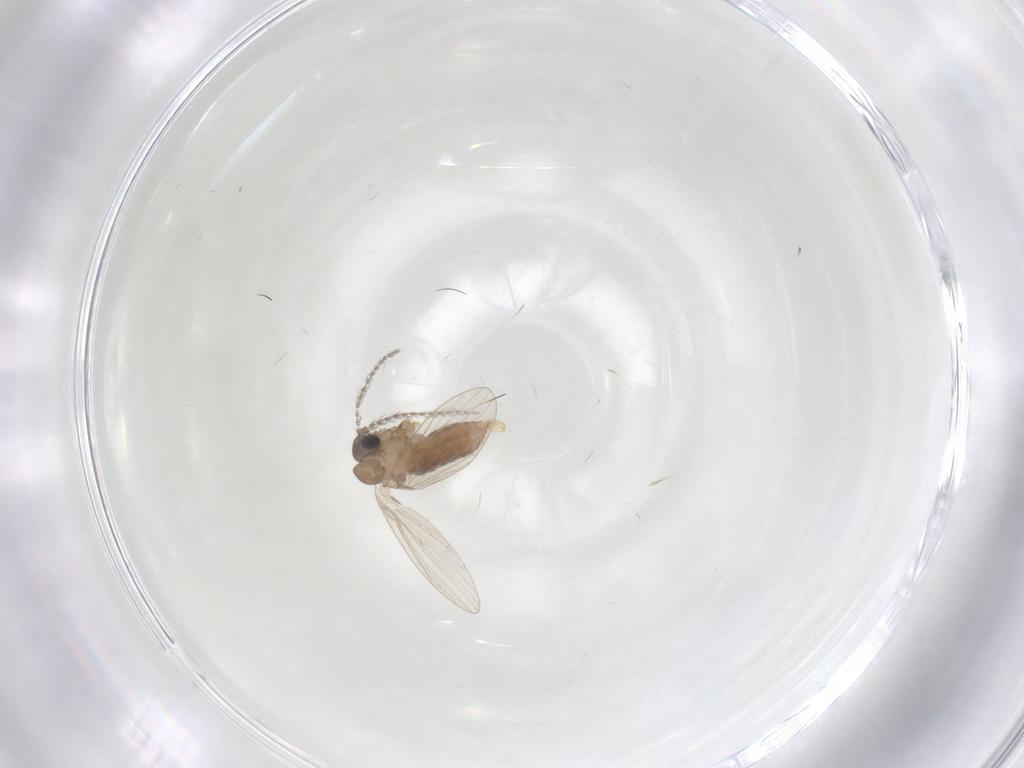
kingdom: Animalia
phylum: Arthropoda
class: Insecta
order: Diptera
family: Psychodidae
